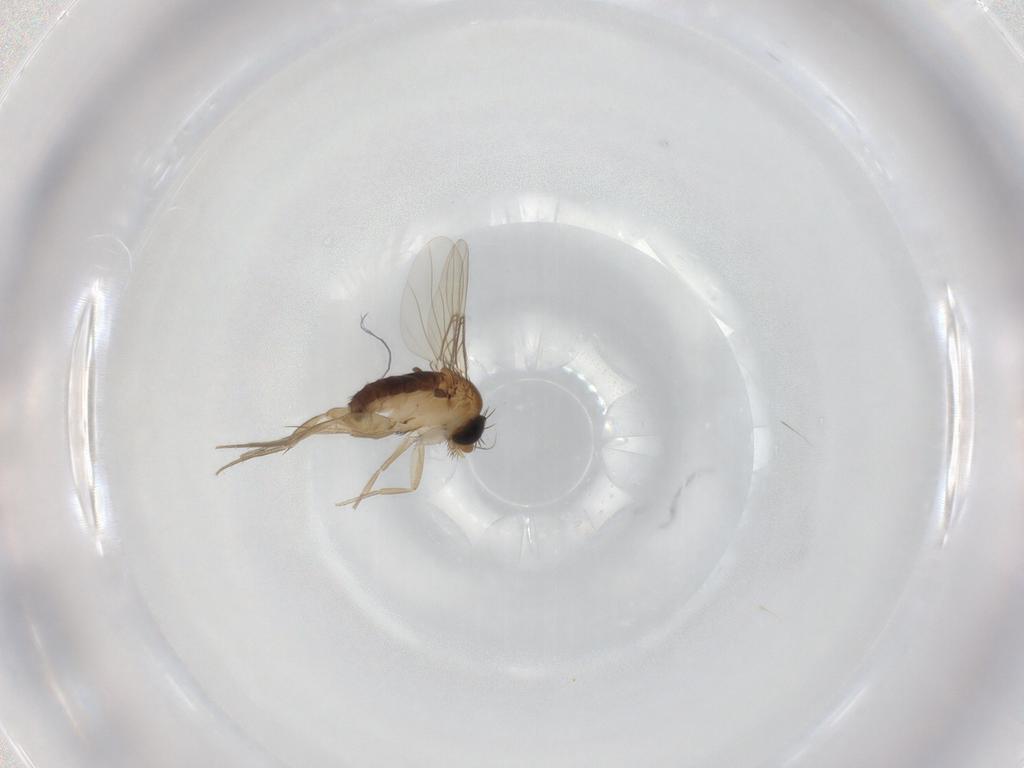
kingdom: Animalia
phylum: Arthropoda
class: Insecta
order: Diptera
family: Phoridae
